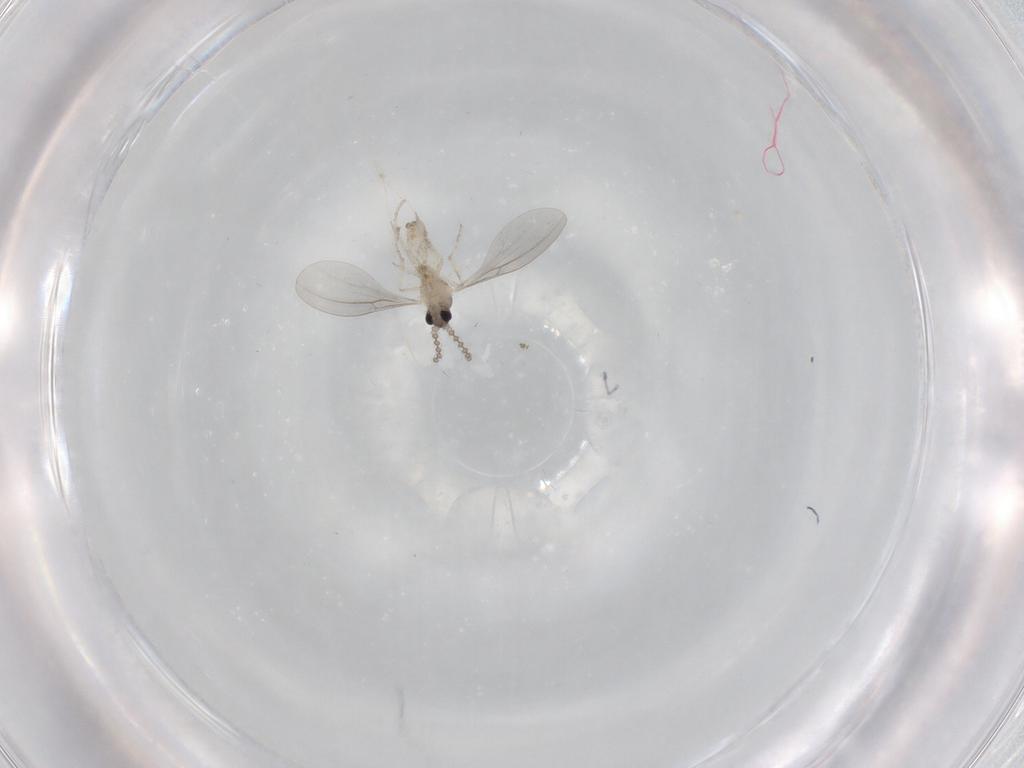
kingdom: Animalia
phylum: Arthropoda
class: Insecta
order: Diptera
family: Cecidomyiidae
